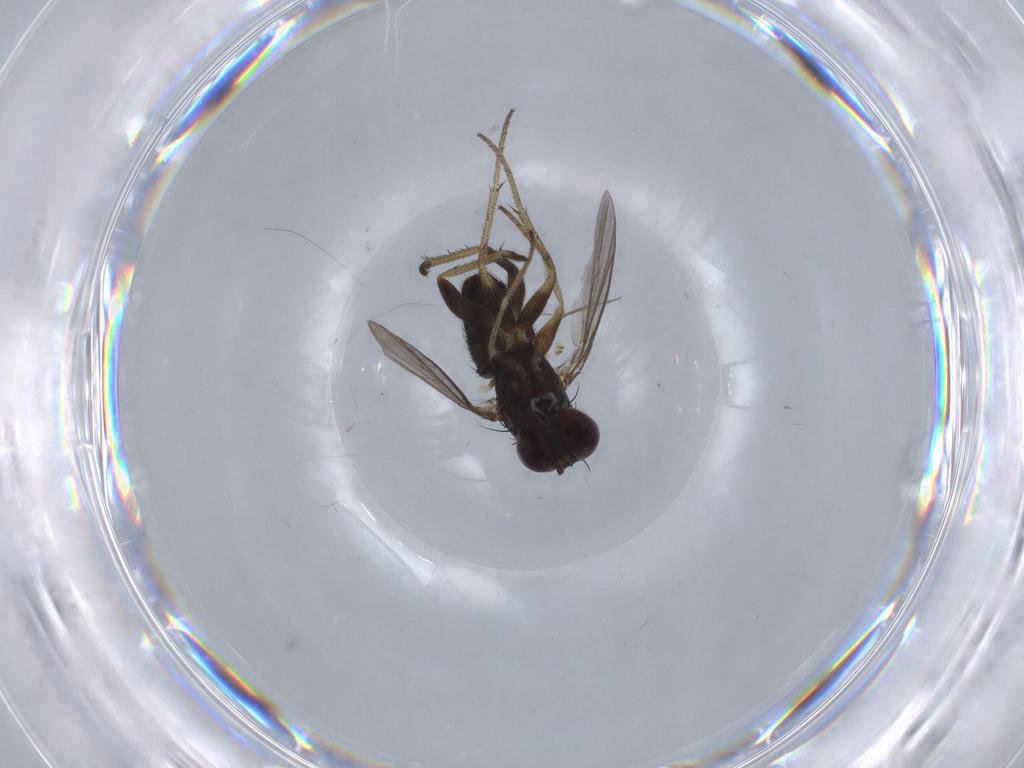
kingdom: Animalia
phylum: Arthropoda
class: Insecta
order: Diptera
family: Chironomidae
